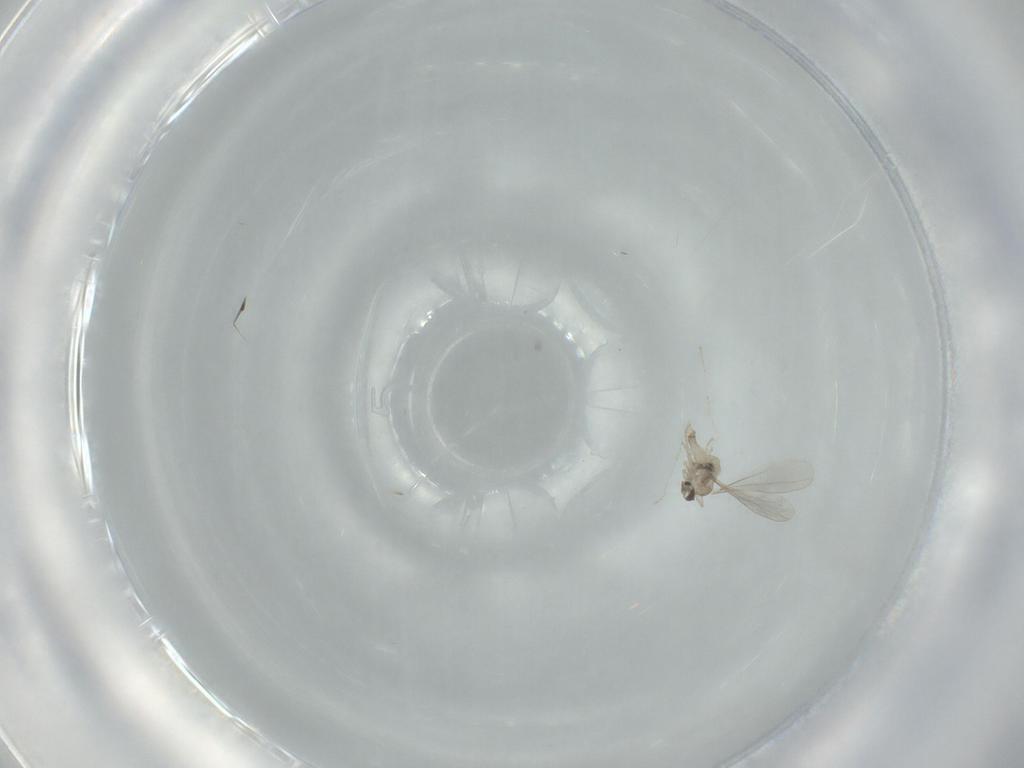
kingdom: Animalia
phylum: Arthropoda
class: Insecta
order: Diptera
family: Cecidomyiidae
